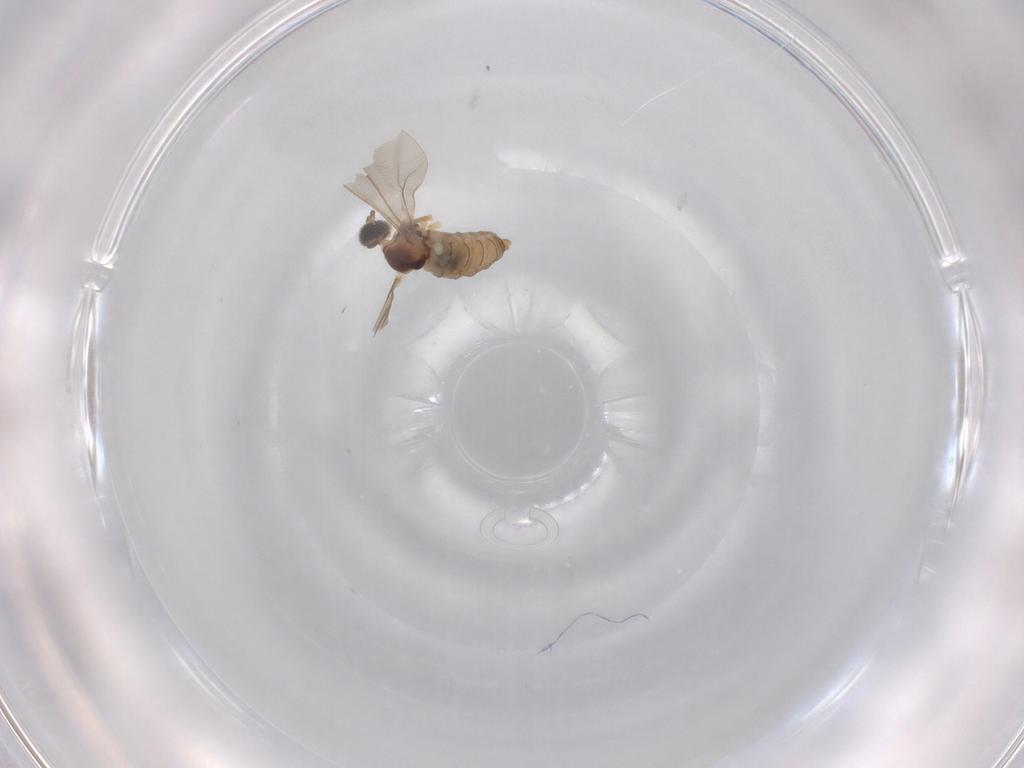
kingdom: Animalia
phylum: Arthropoda
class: Insecta
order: Diptera
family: Cecidomyiidae
